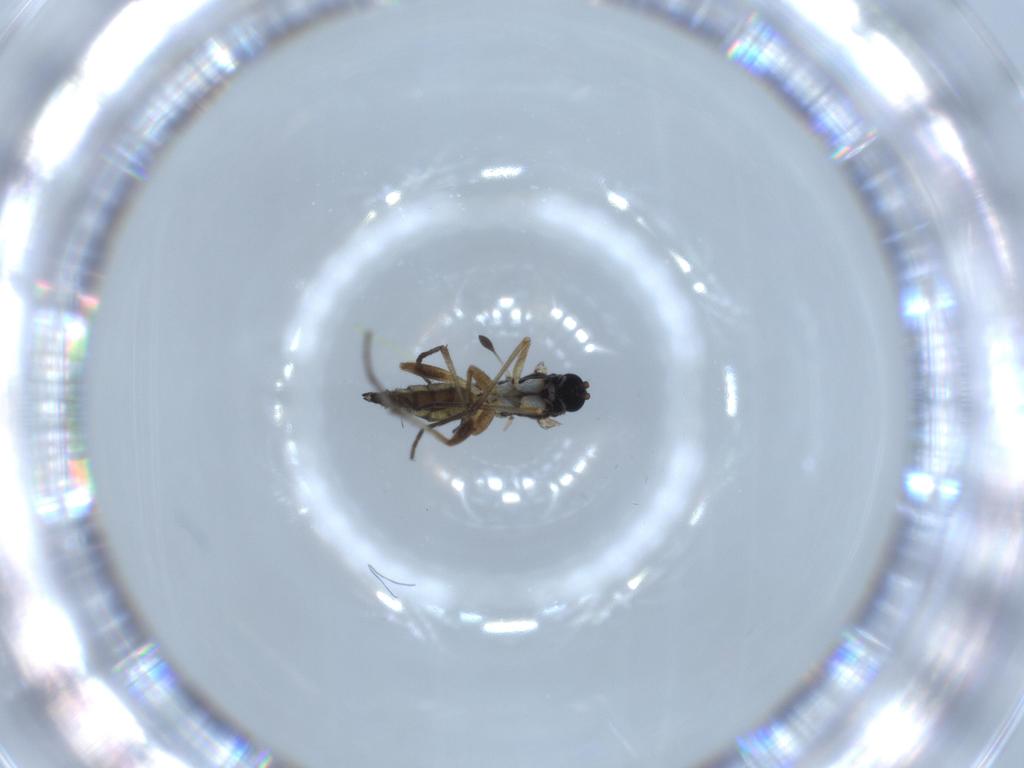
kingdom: Animalia
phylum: Arthropoda
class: Insecta
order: Diptera
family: Sciaridae
